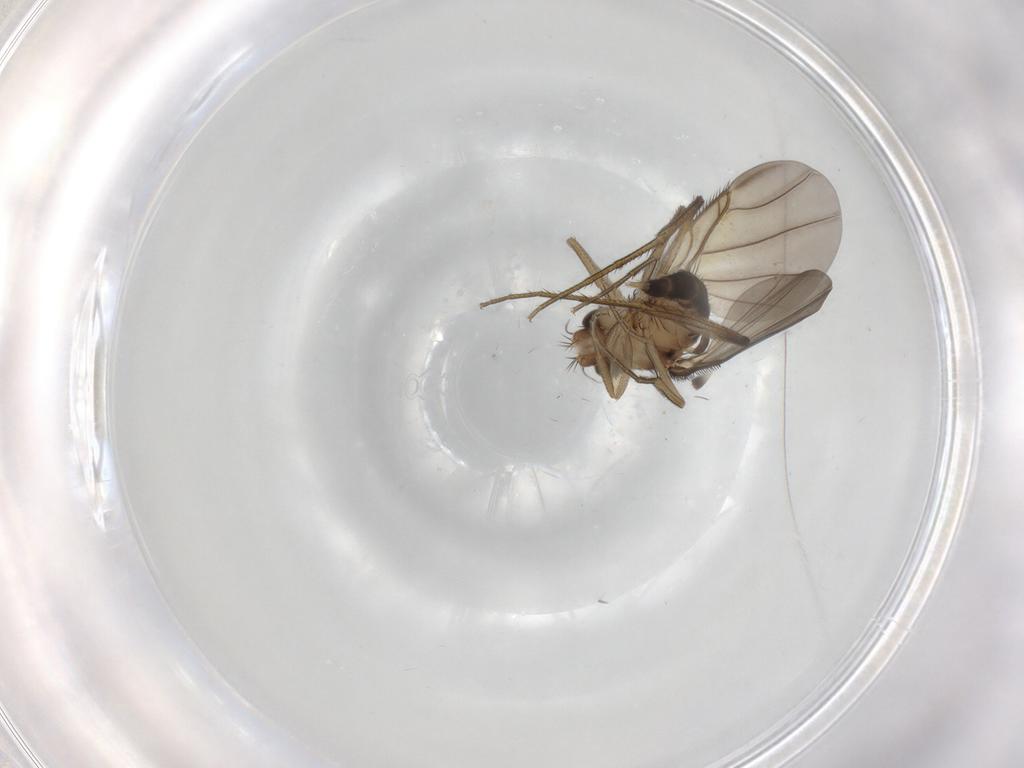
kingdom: Animalia
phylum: Arthropoda
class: Insecta
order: Diptera
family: Phoridae
